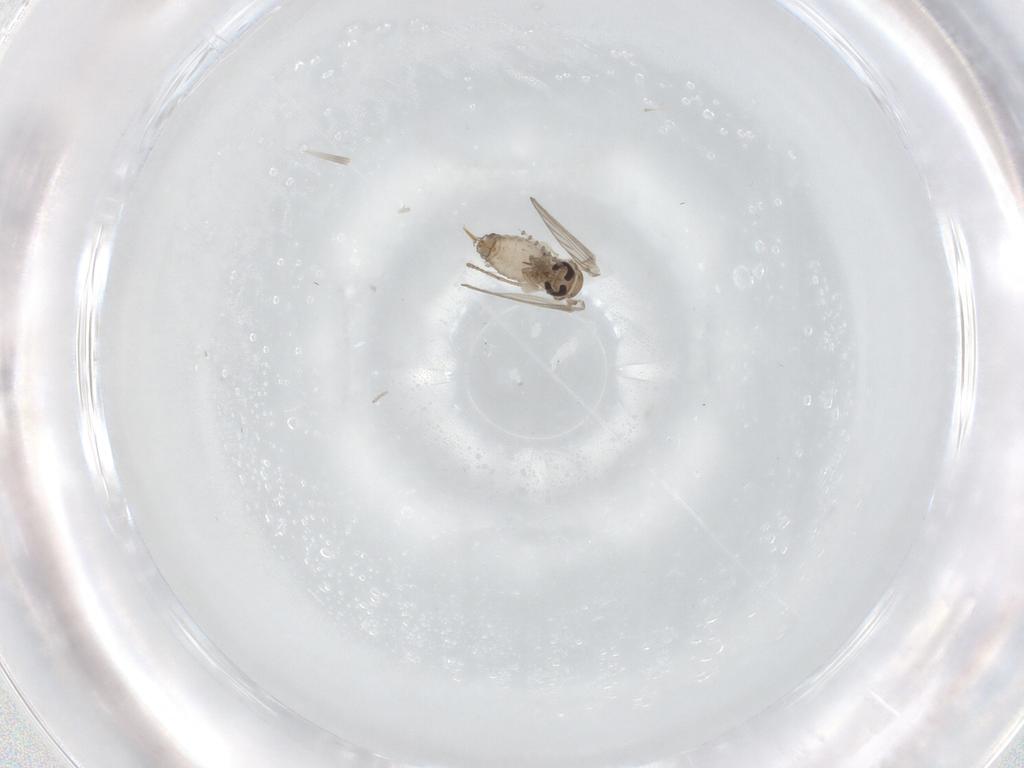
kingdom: Animalia
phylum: Arthropoda
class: Insecta
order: Diptera
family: Psychodidae
